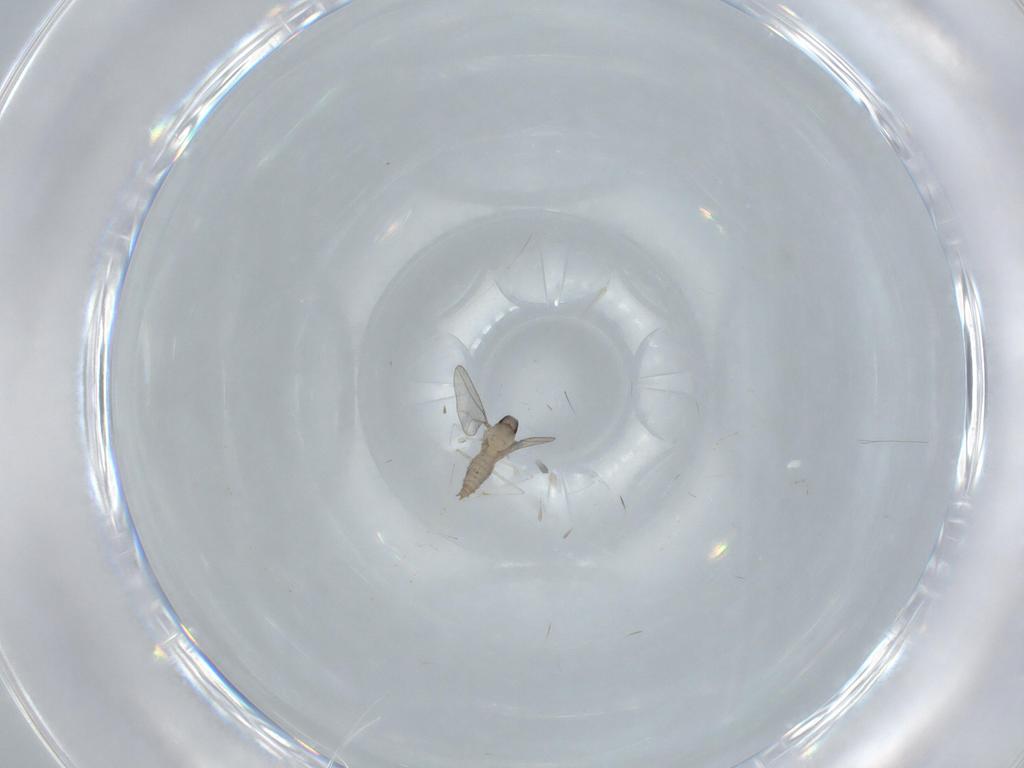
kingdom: Animalia
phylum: Arthropoda
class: Insecta
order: Diptera
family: Cecidomyiidae
